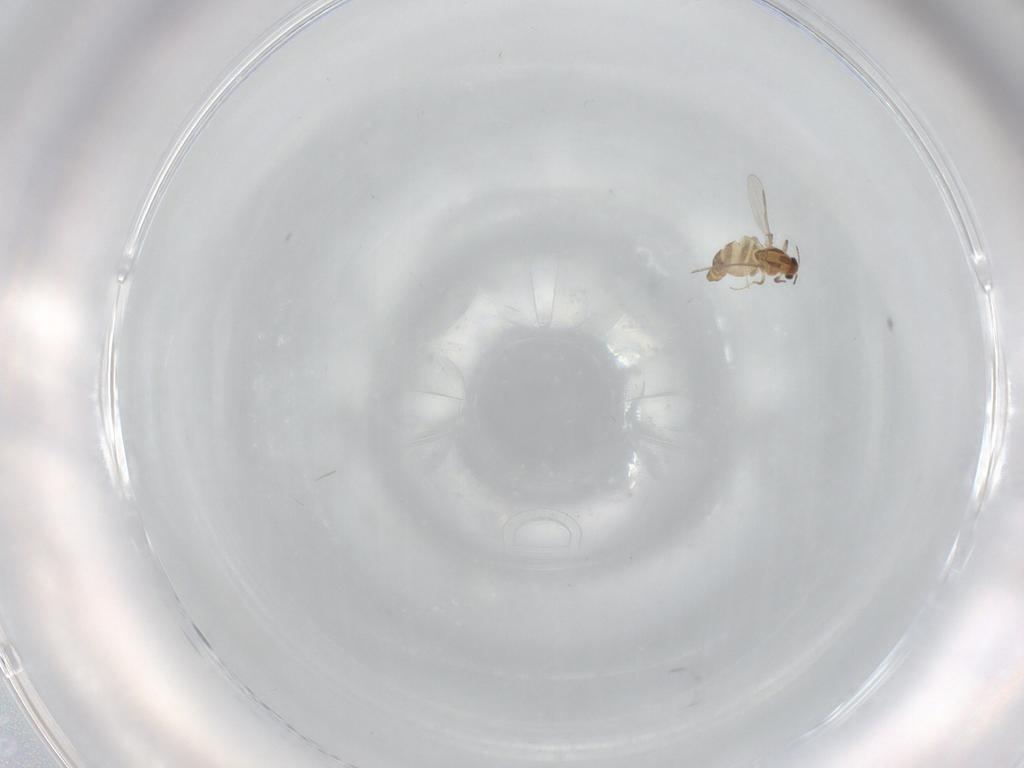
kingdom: Animalia
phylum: Arthropoda
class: Insecta
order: Diptera
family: Chironomidae
